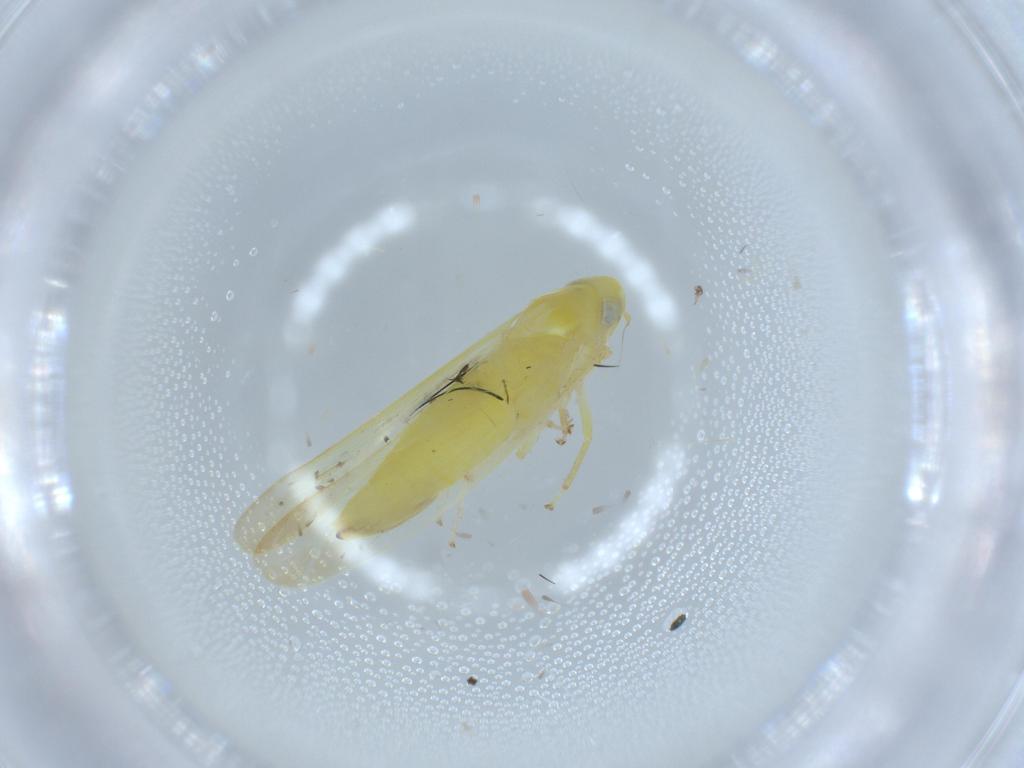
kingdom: Animalia
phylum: Arthropoda
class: Insecta
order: Hemiptera
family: Cicadellidae
